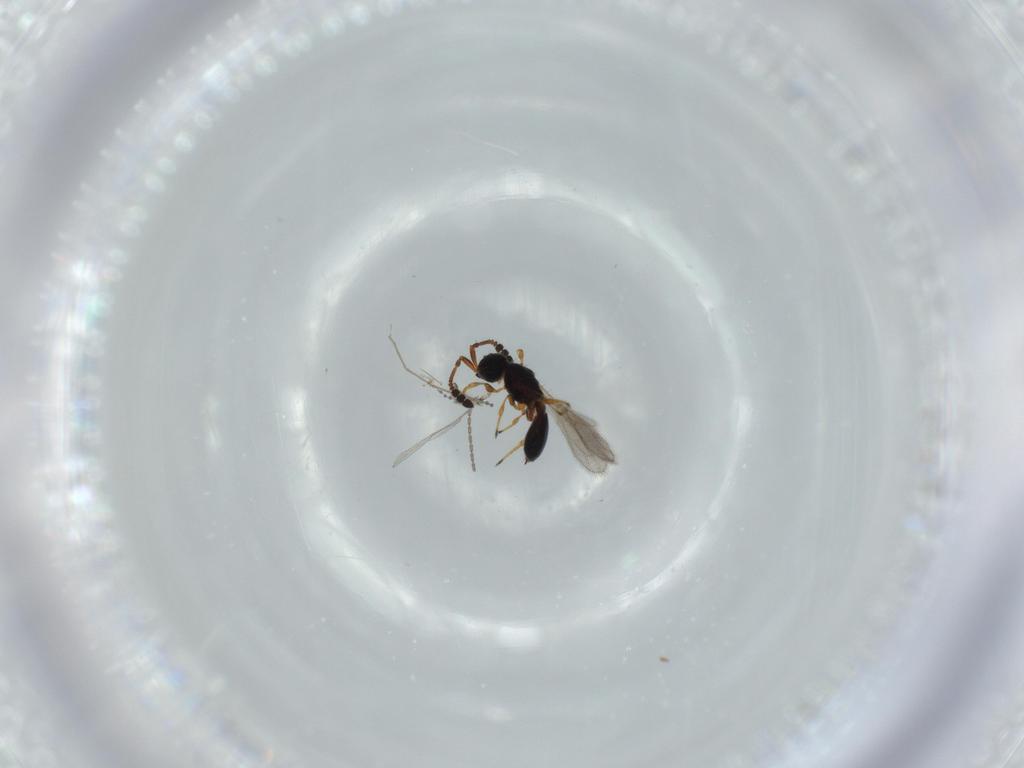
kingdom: Animalia
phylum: Arthropoda
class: Insecta
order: Hymenoptera
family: Diapriidae
